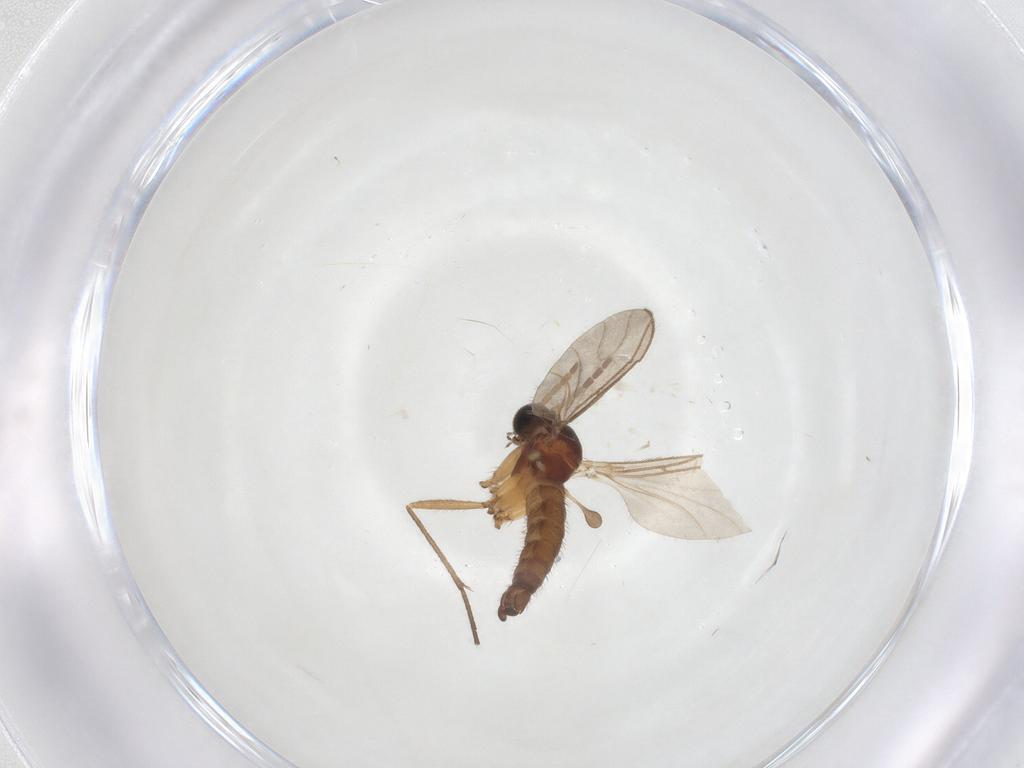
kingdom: Animalia
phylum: Arthropoda
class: Insecta
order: Diptera
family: Sciaridae
